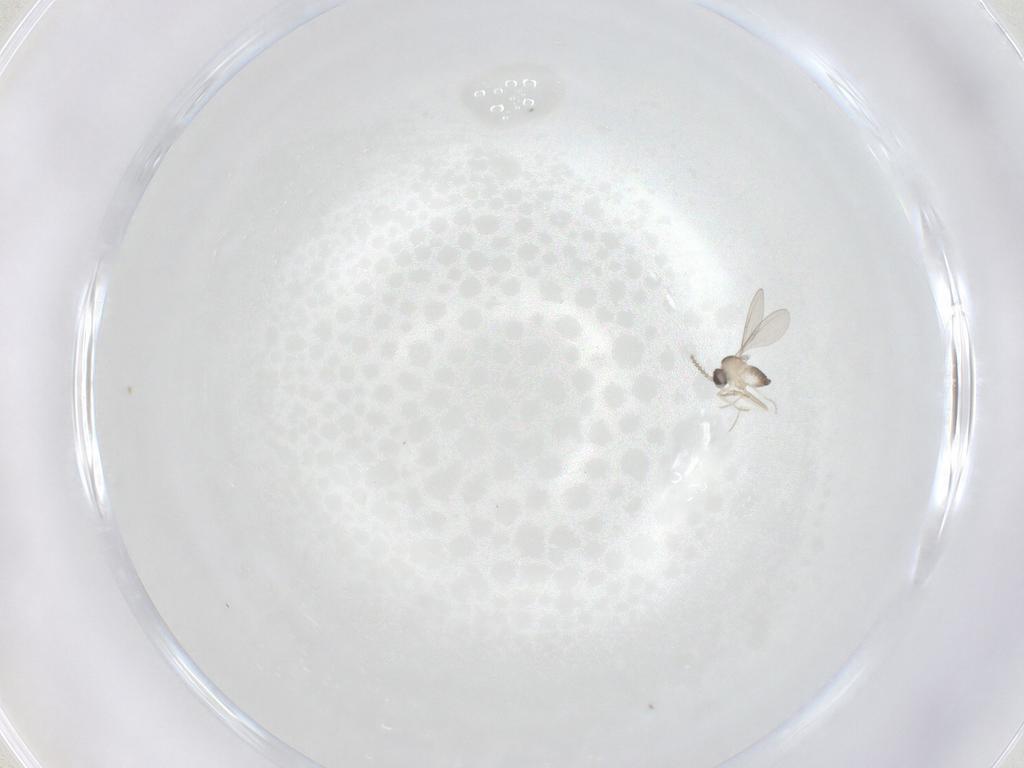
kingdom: Animalia
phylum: Arthropoda
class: Insecta
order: Diptera
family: Cecidomyiidae
